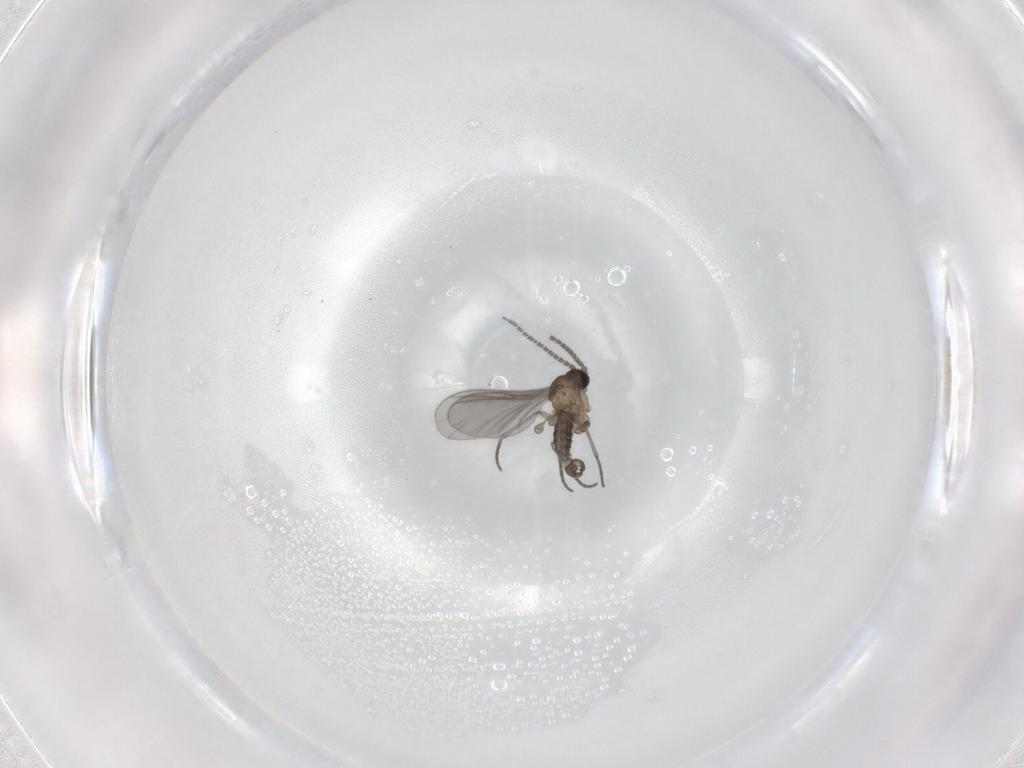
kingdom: Animalia
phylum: Arthropoda
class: Insecta
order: Diptera
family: Sciaridae
